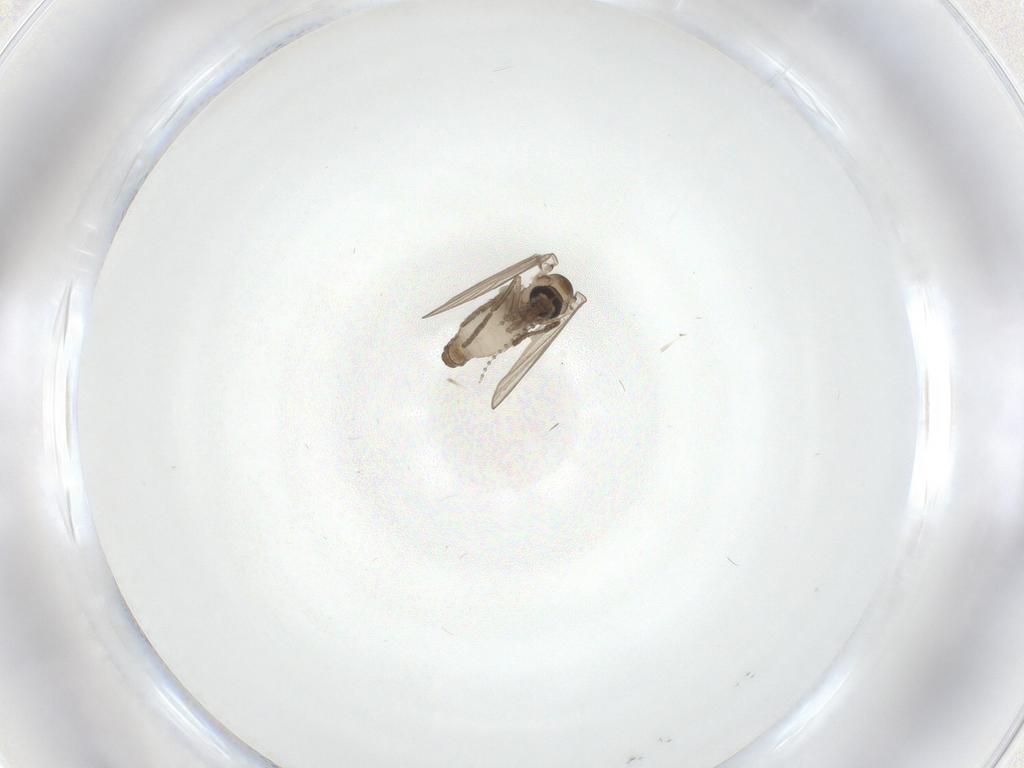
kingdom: Animalia
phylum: Arthropoda
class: Insecta
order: Diptera
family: Psychodidae
